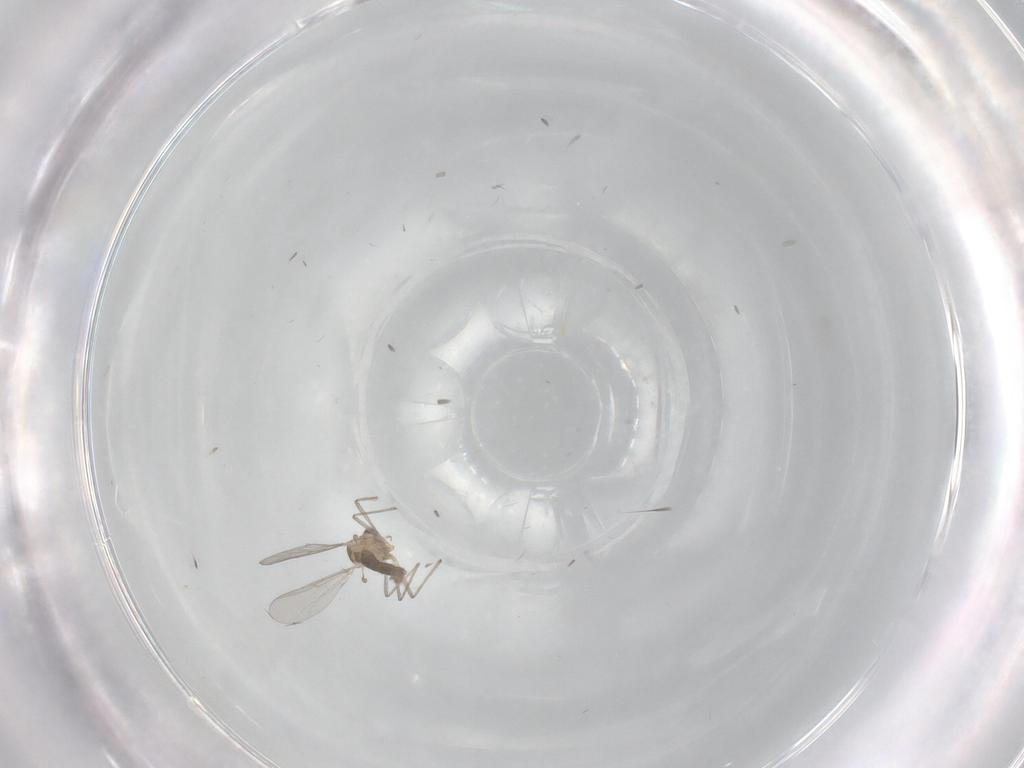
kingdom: Animalia
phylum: Arthropoda
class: Insecta
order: Diptera
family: Chironomidae
